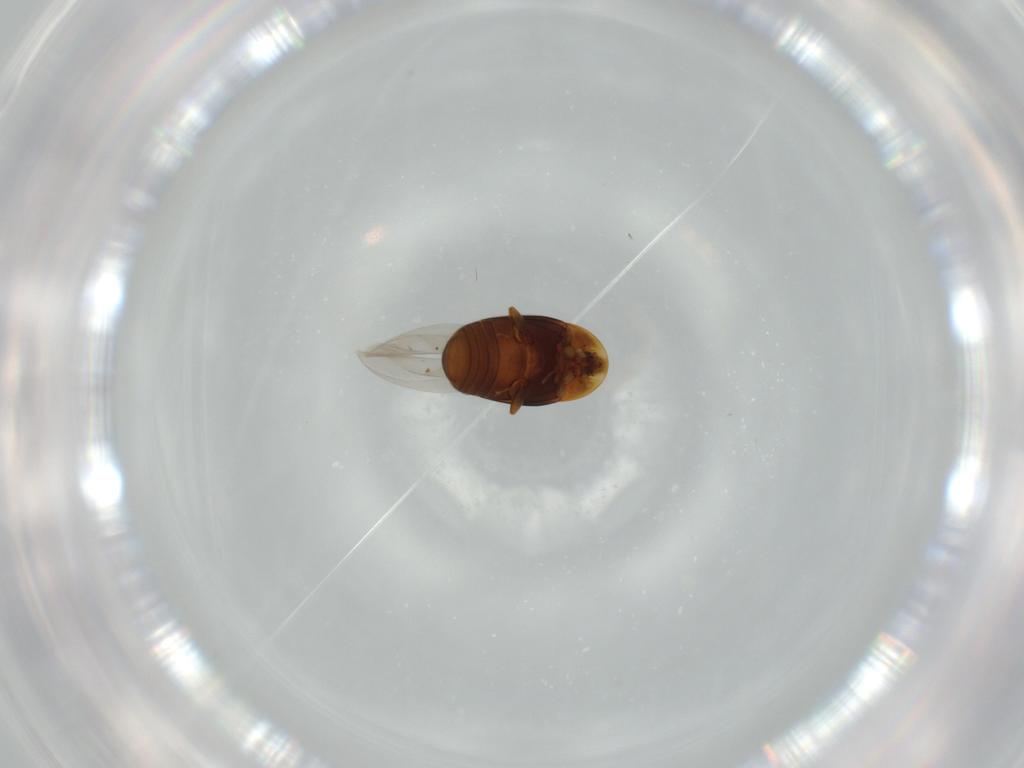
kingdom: Animalia
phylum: Arthropoda
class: Insecta
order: Coleoptera
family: Corylophidae
